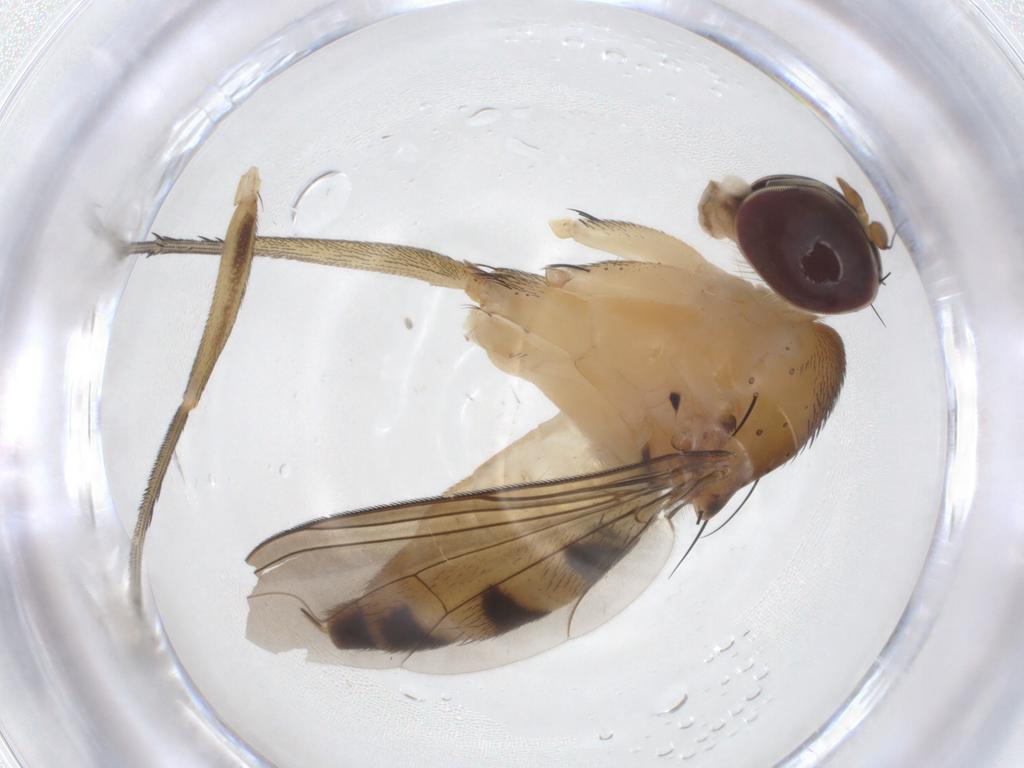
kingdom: Animalia
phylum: Arthropoda
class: Insecta
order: Diptera
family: Dolichopodidae
